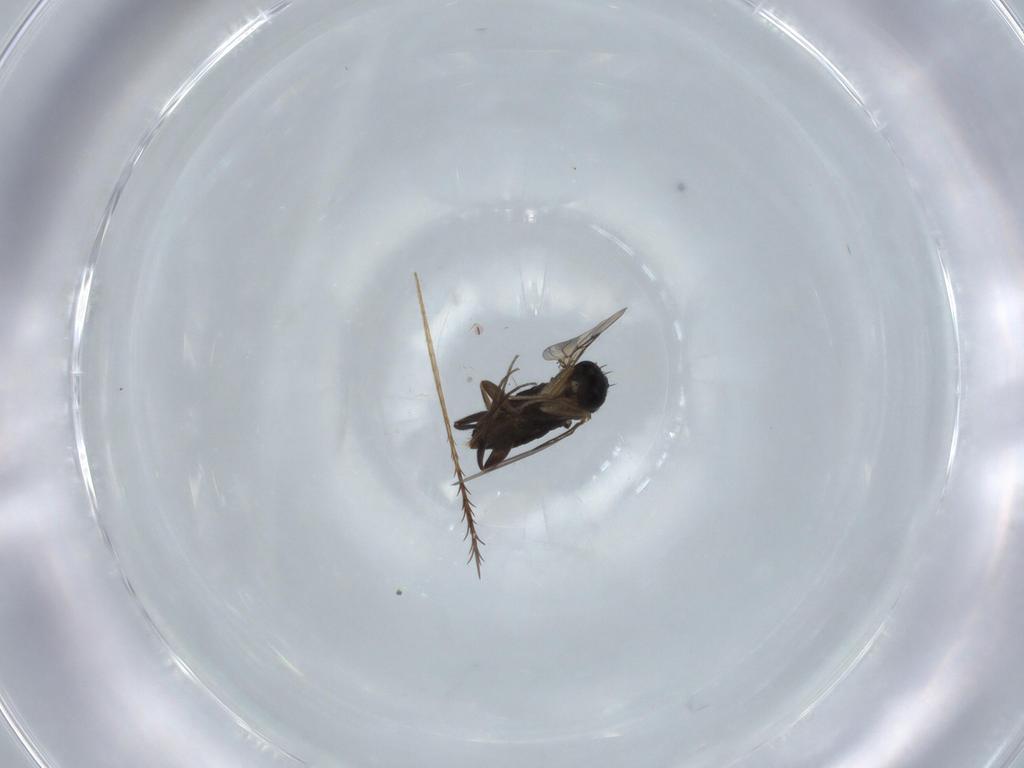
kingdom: Animalia
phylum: Arthropoda
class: Insecta
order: Diptera
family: Phoridae
